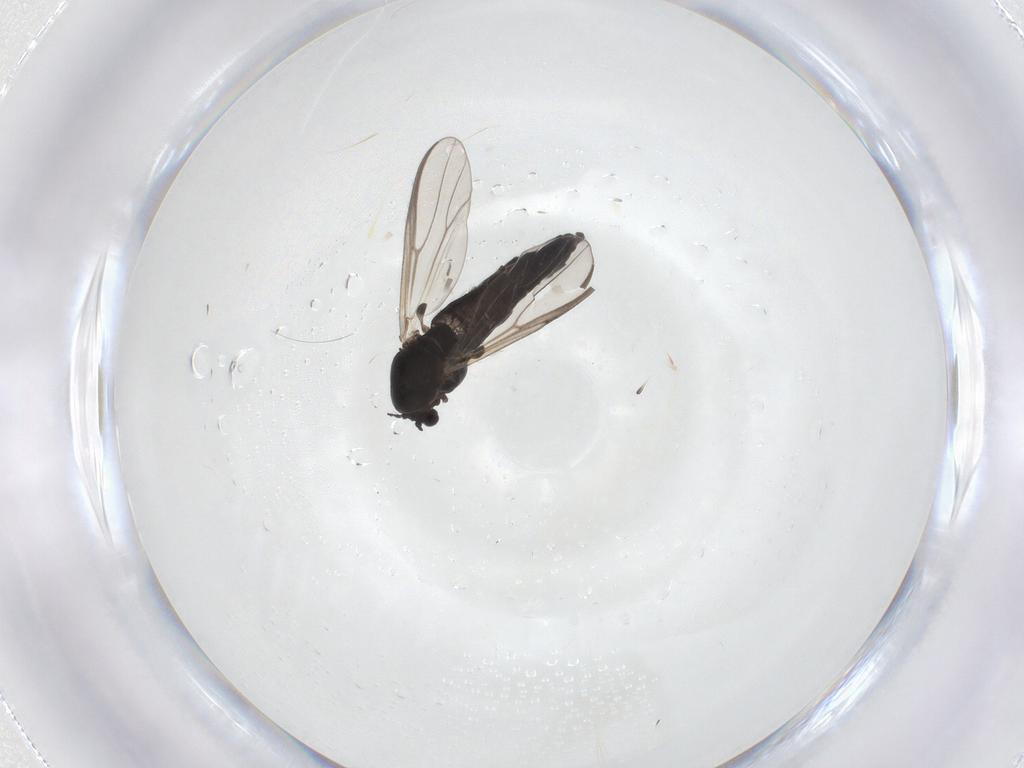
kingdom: Animalia
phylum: Arthropoda
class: Insecta
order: Diptera
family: Chironomidae
